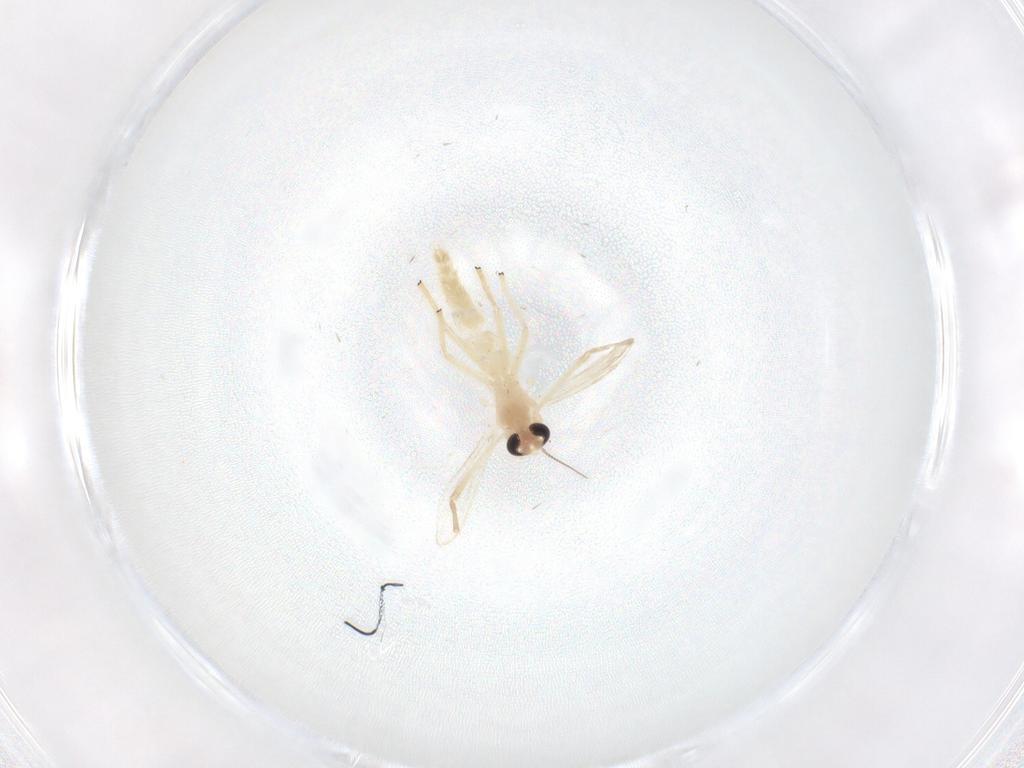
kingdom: Animalia
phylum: Arthropoda
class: Insecta
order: Diptera
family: Chironomidae
